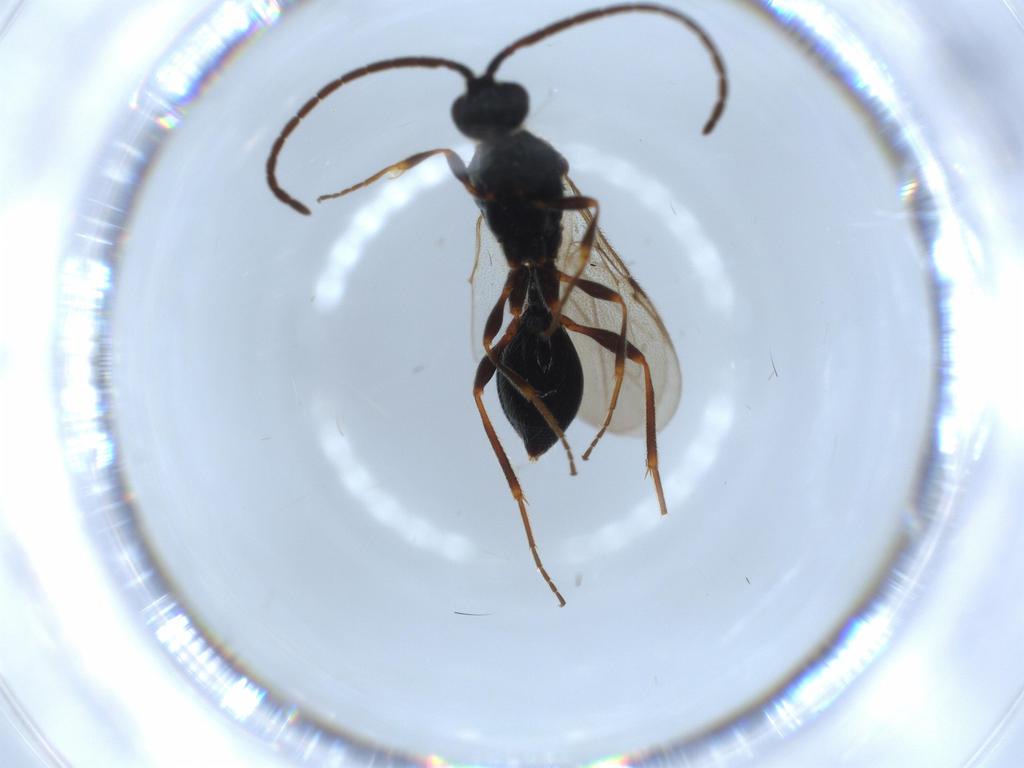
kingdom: Animalia
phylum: Arthropoda
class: Insecta
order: Hymenoptera
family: Diapriidae
